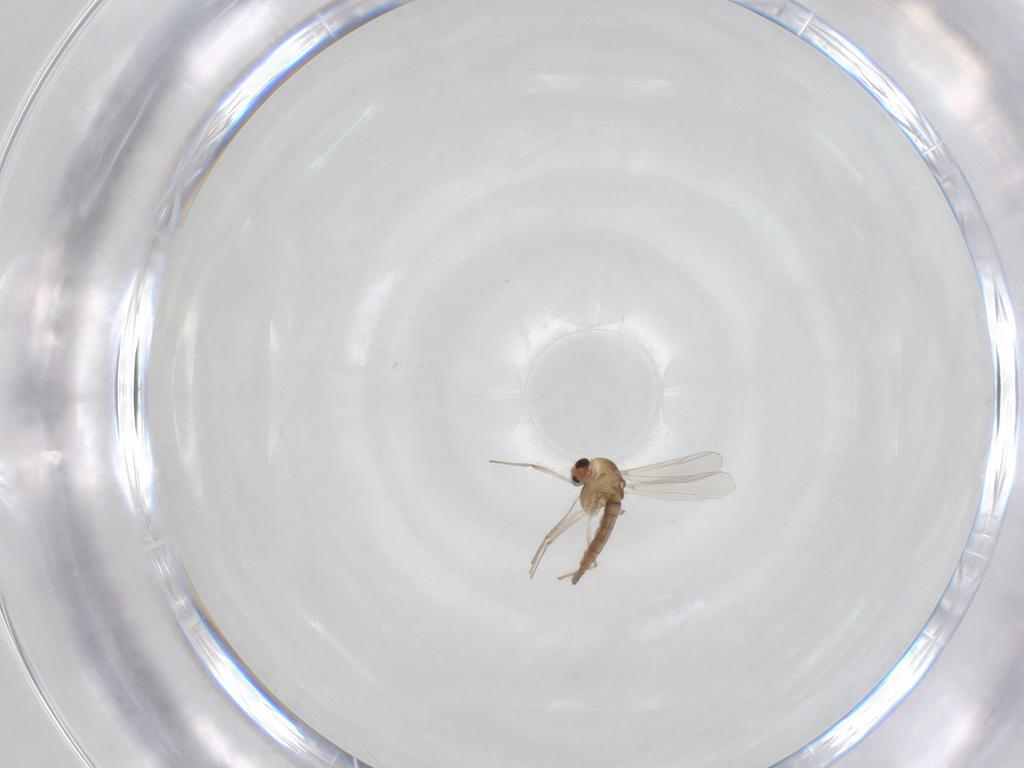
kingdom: Animalia
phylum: Arthropoda
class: Insecta
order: Diptera
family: Chironomidae
